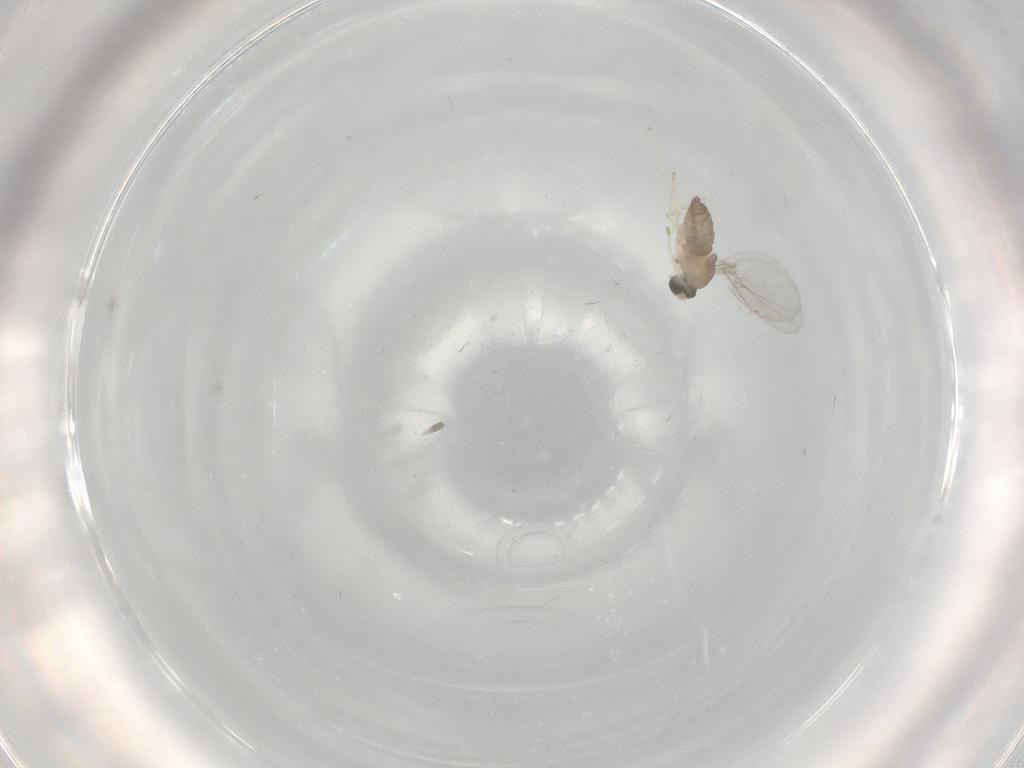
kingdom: Animalia
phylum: Arthropoda
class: Insecta
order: Diptera
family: Cecidomyiidae
